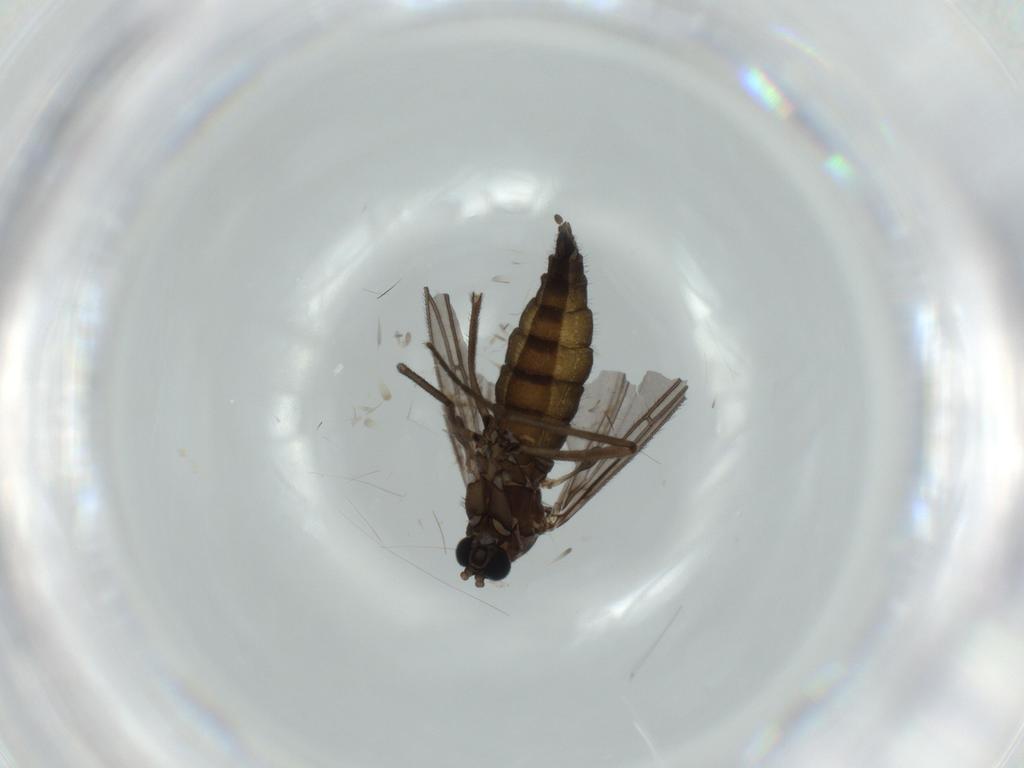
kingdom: Animalia
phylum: Arthropoda
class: Insecta
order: Diptera
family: Sciaridae
